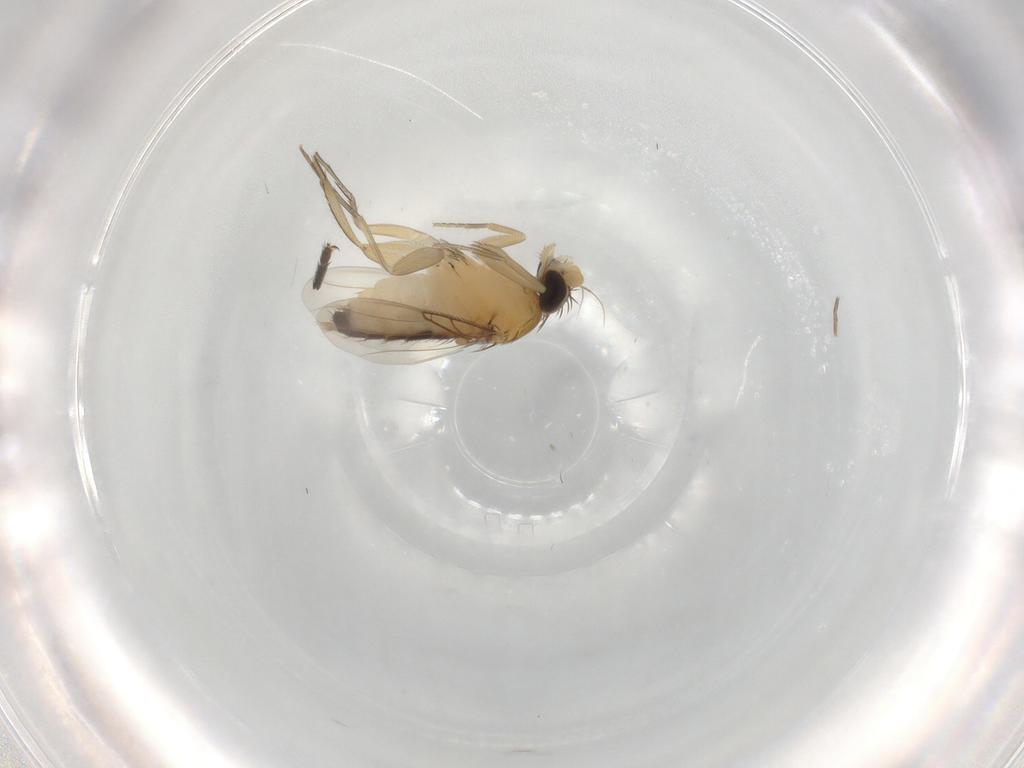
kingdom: Animalia
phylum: Arthropoda
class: Insecta
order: Diptera
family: Phoridae
